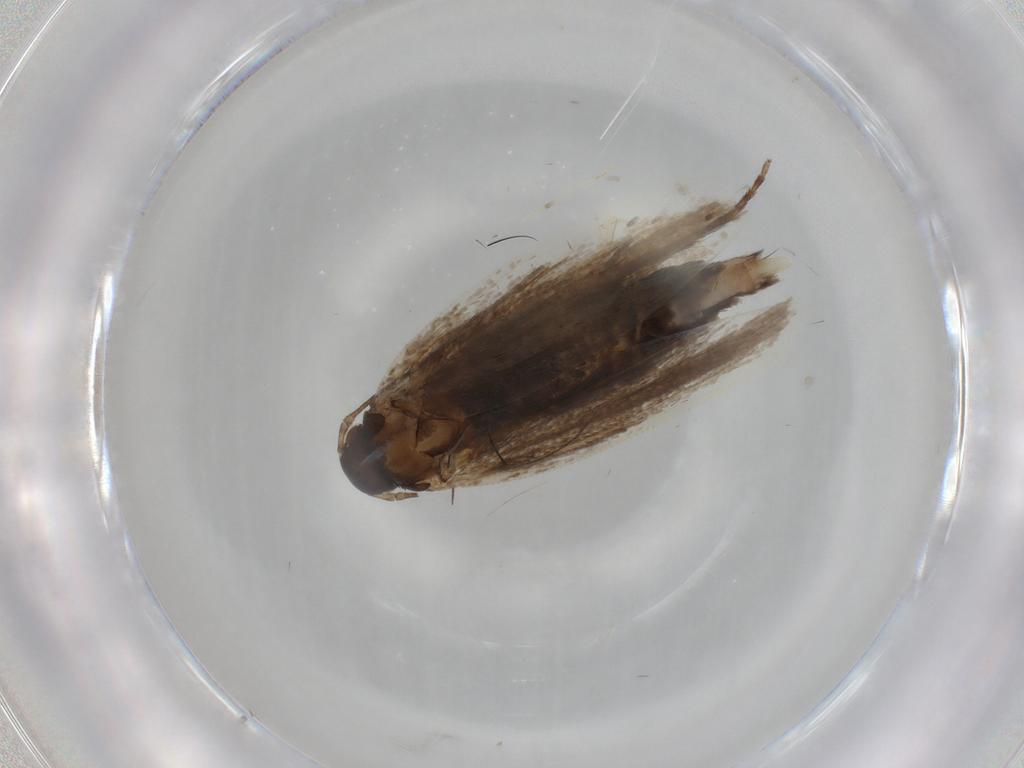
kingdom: Animalia
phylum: Arthropoda
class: Insecta
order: Lepidoptera
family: Gelechiidae
